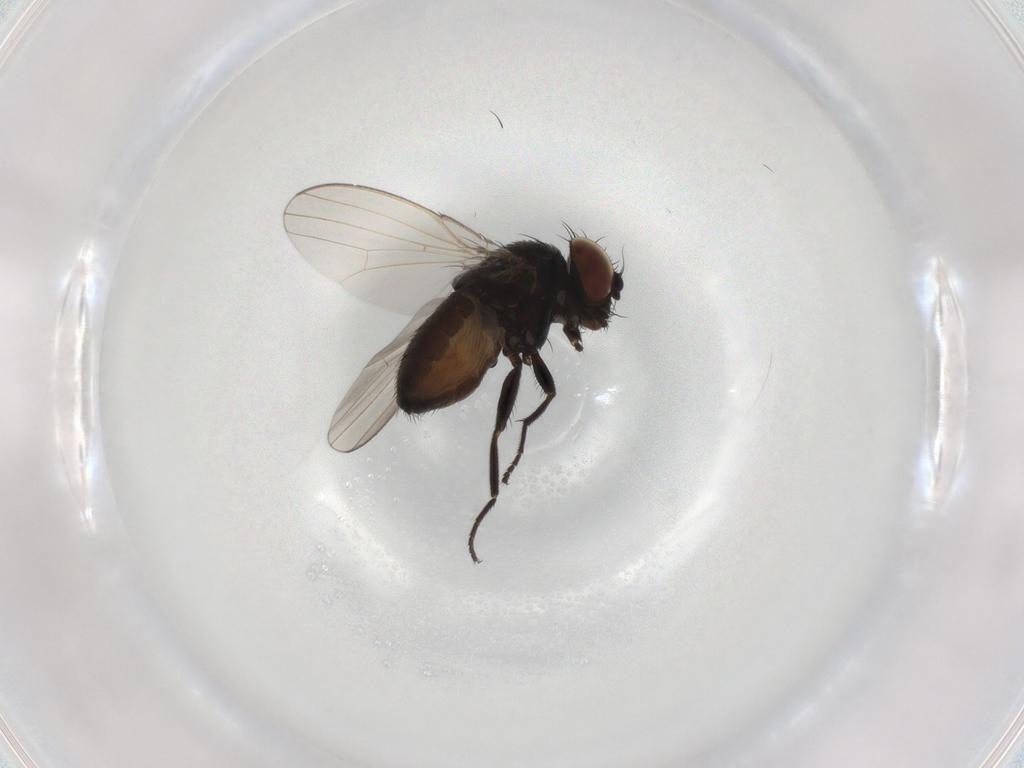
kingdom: Animalia
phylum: Arthropoda
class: Insecta
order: Diptera
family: Milichiidae
